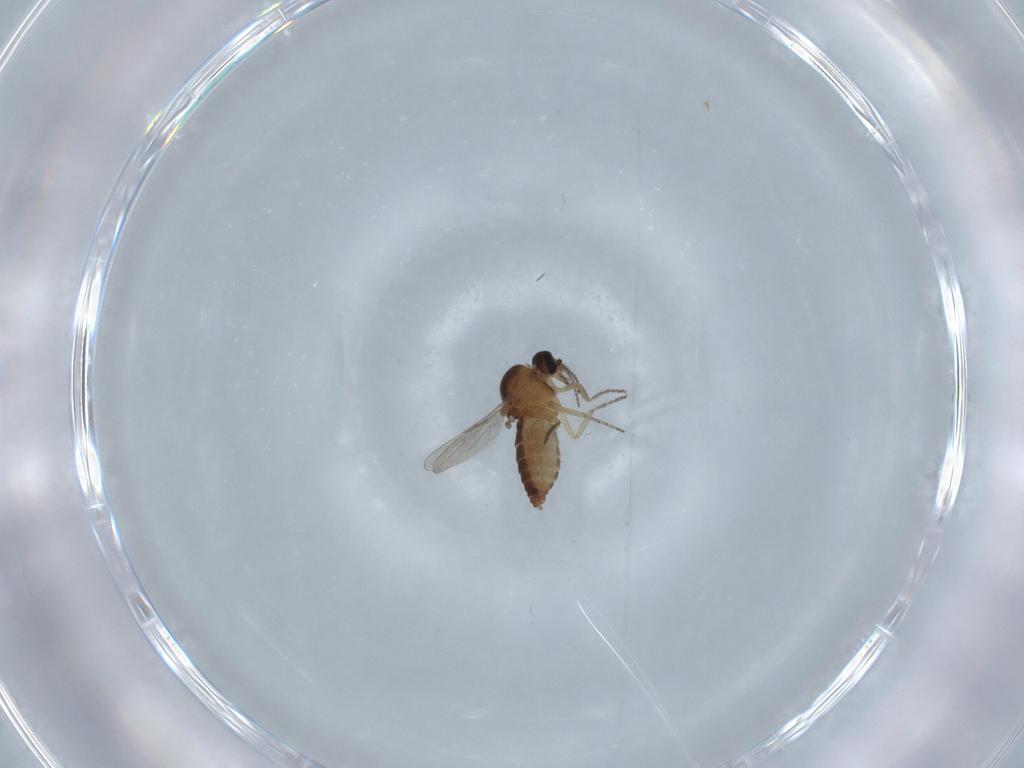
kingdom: Animalia
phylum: Arthropoda
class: Insecta
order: Diptera
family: Ceratopogonidae
